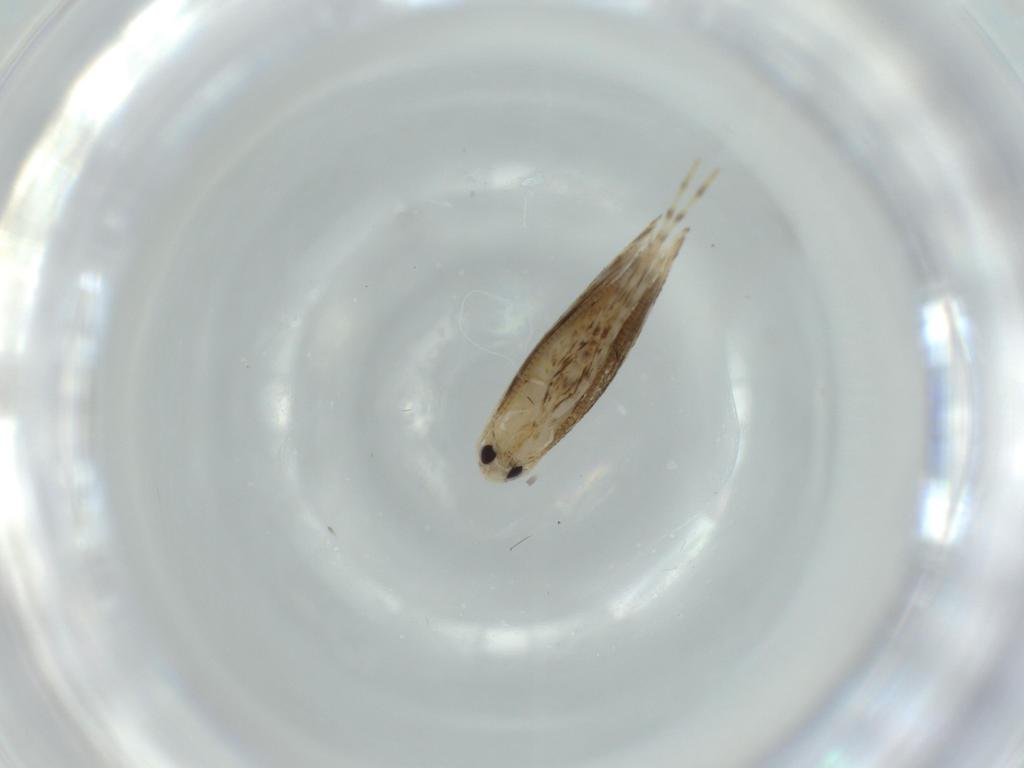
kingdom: Animalia
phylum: Arthropoda
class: Insecta
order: Lepidoptera
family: Gracillariidae
